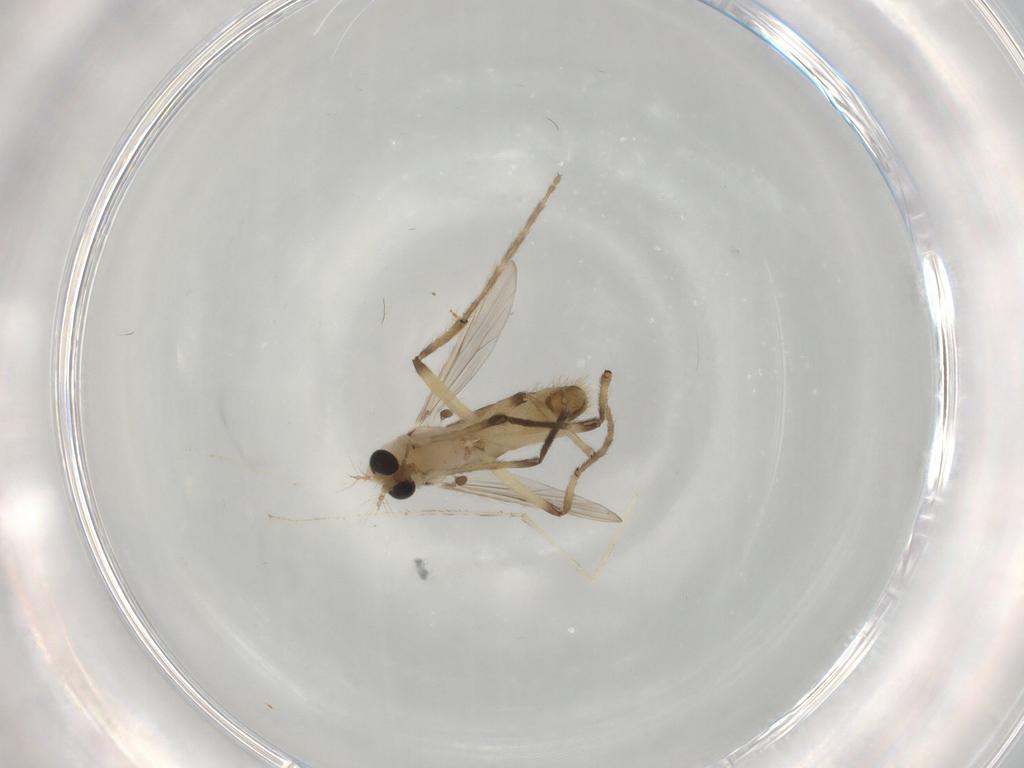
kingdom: Animalia
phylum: Arthropoda
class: Insecta
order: Diptera
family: Chironomidae
